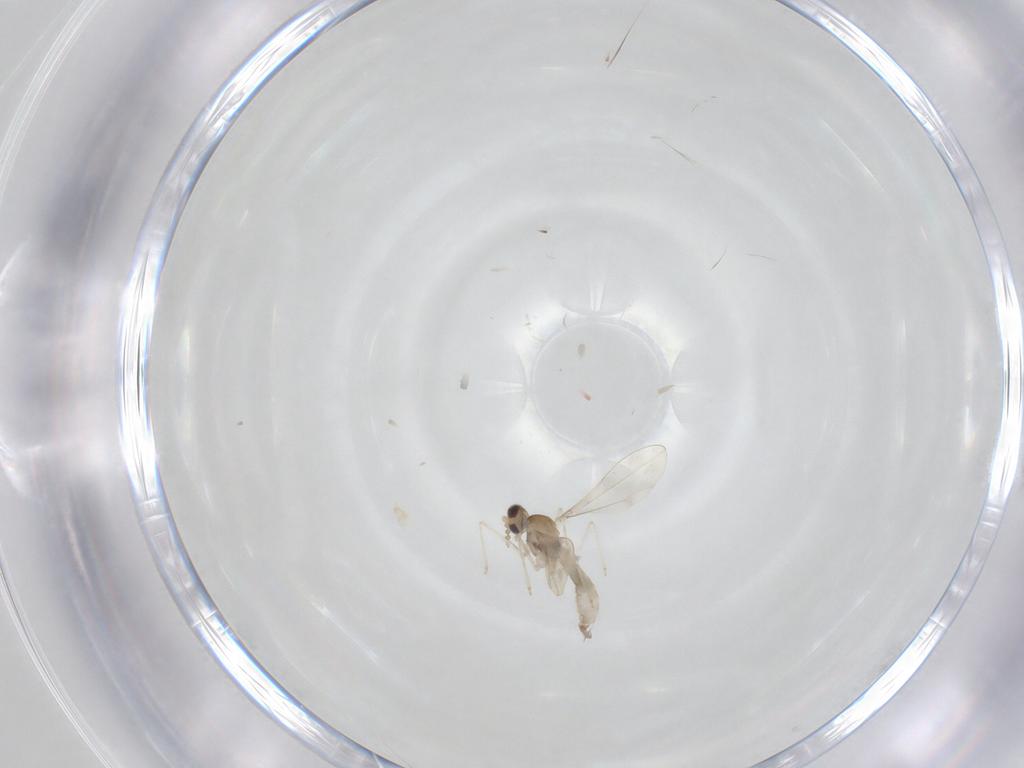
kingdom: Animalia
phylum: Arthropoda
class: Insecta
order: Diptera
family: Cecidomyiidae
